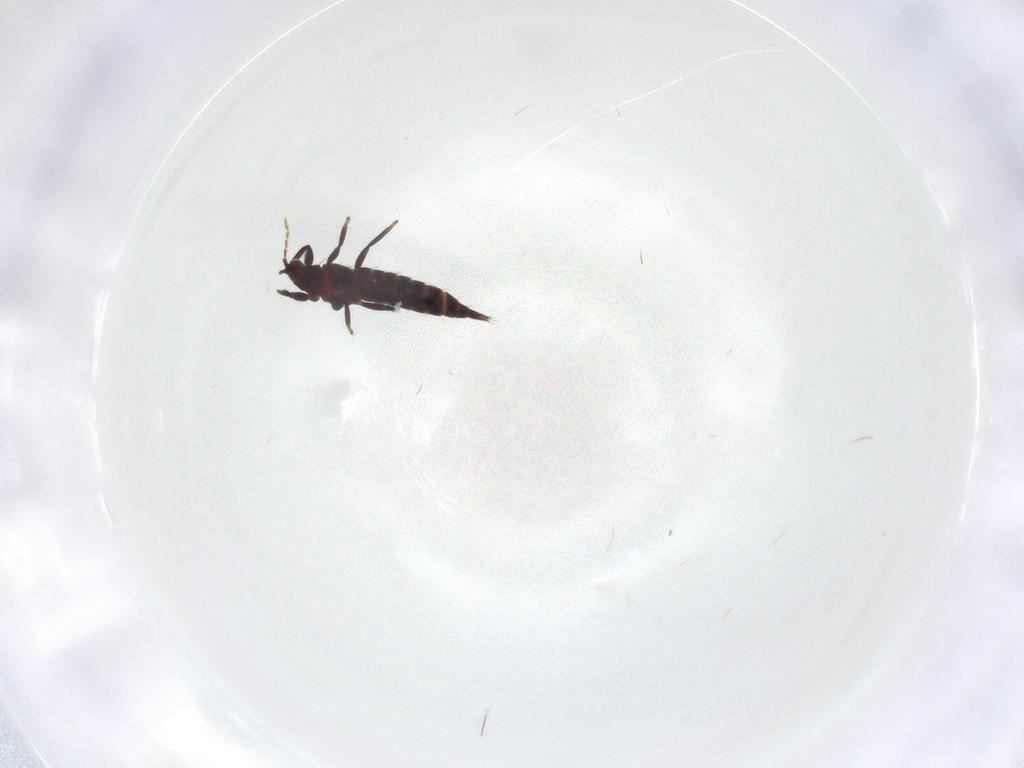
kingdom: Animalia
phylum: Arthropoda
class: Insecta
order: Thysanoptera
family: Phlaeothripidae
